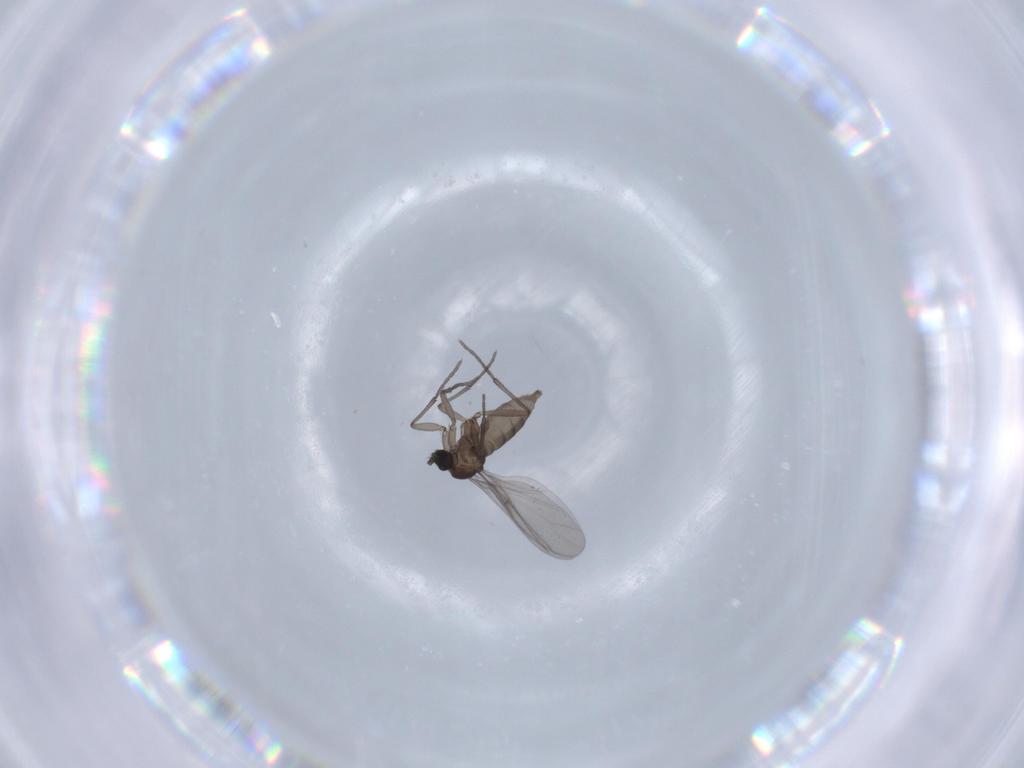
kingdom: Animalia
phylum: Arthropoda
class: Insecta
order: Diptera
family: Sciaridae
